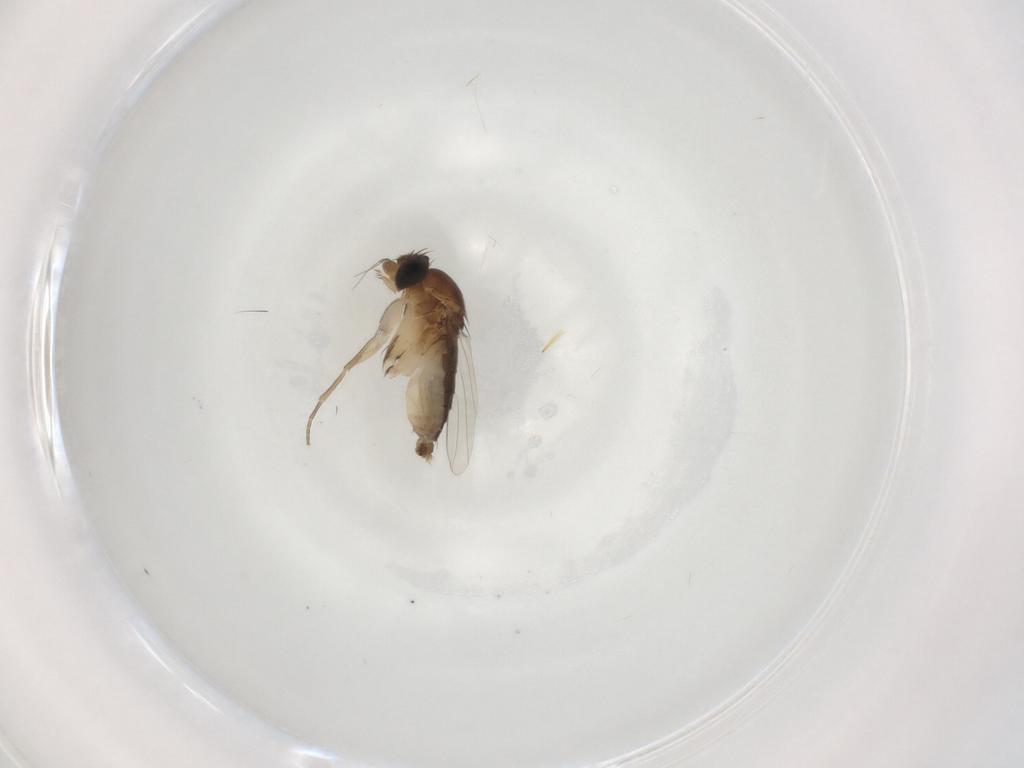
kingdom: Animalia
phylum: Arthropoda
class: Insecta
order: Diptera
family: Phoridae
